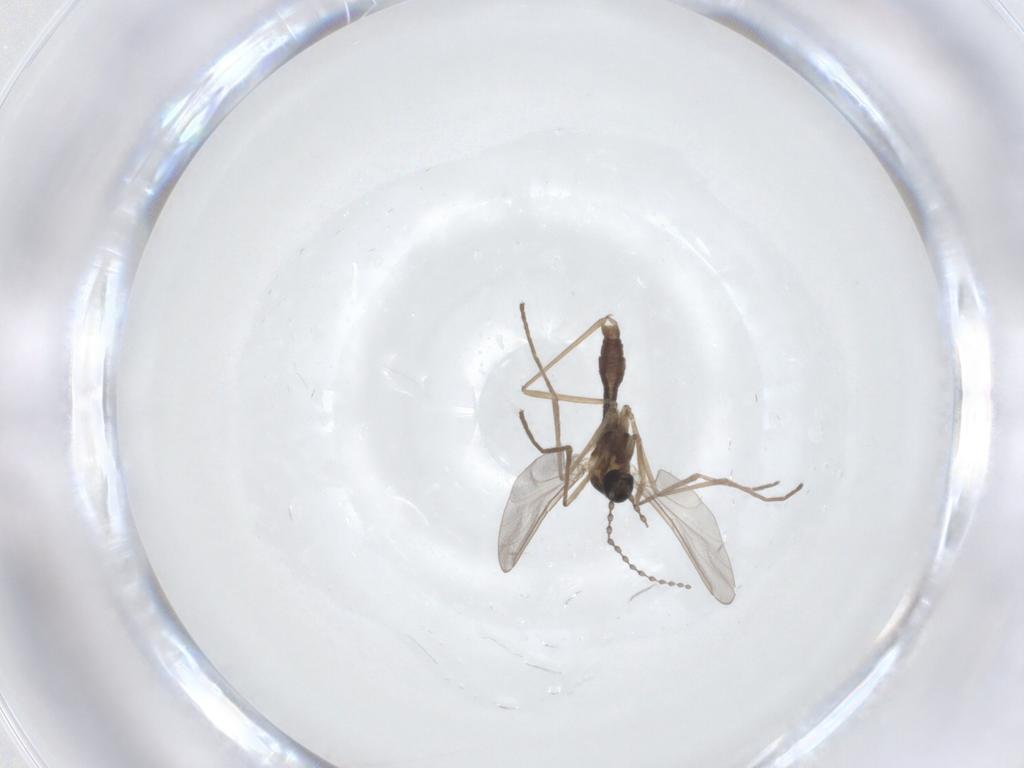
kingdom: Animalia
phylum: Arthropoda
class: Insecta
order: Diptera
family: Cecidomyiidae
